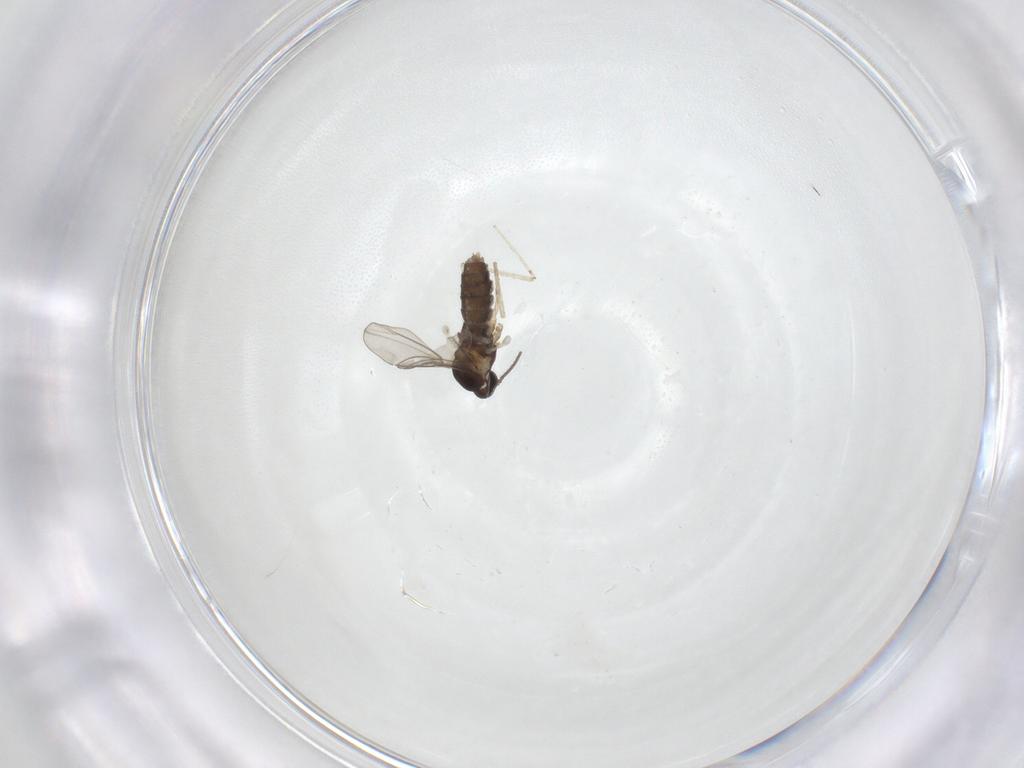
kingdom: Animalia
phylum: Arthropoda
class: Insecta
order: Diptera
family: Cecidomyiidae
